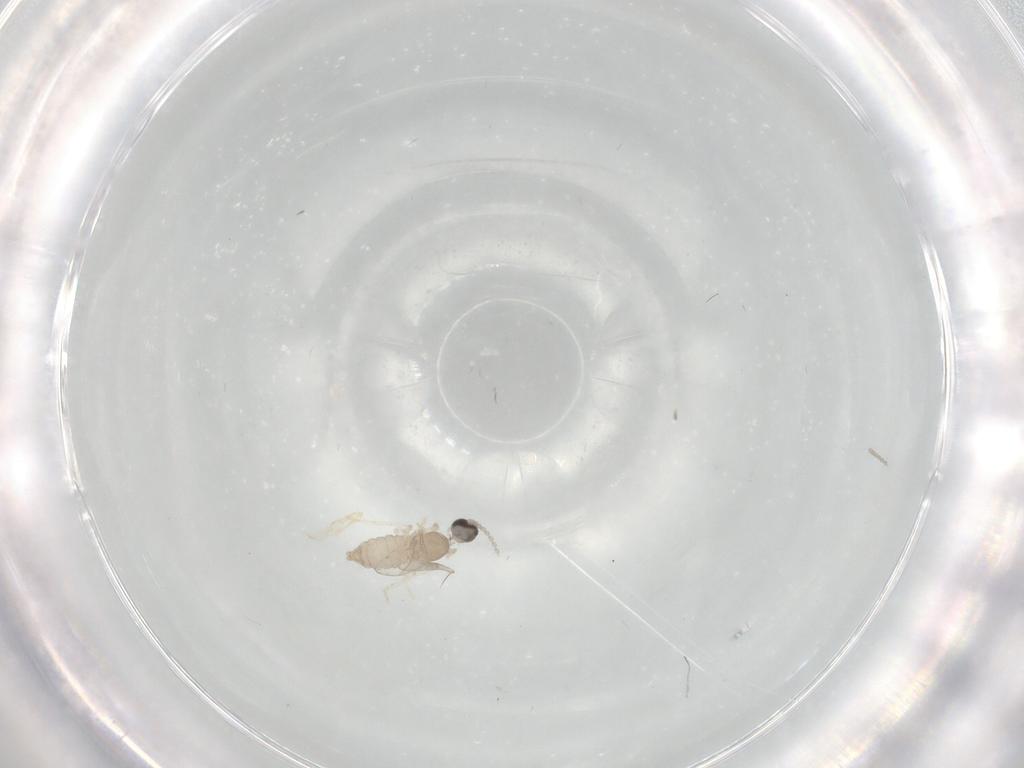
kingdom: Animalia
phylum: Arthropoda
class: Insecta
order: Diptera
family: Cecidomyiidae
